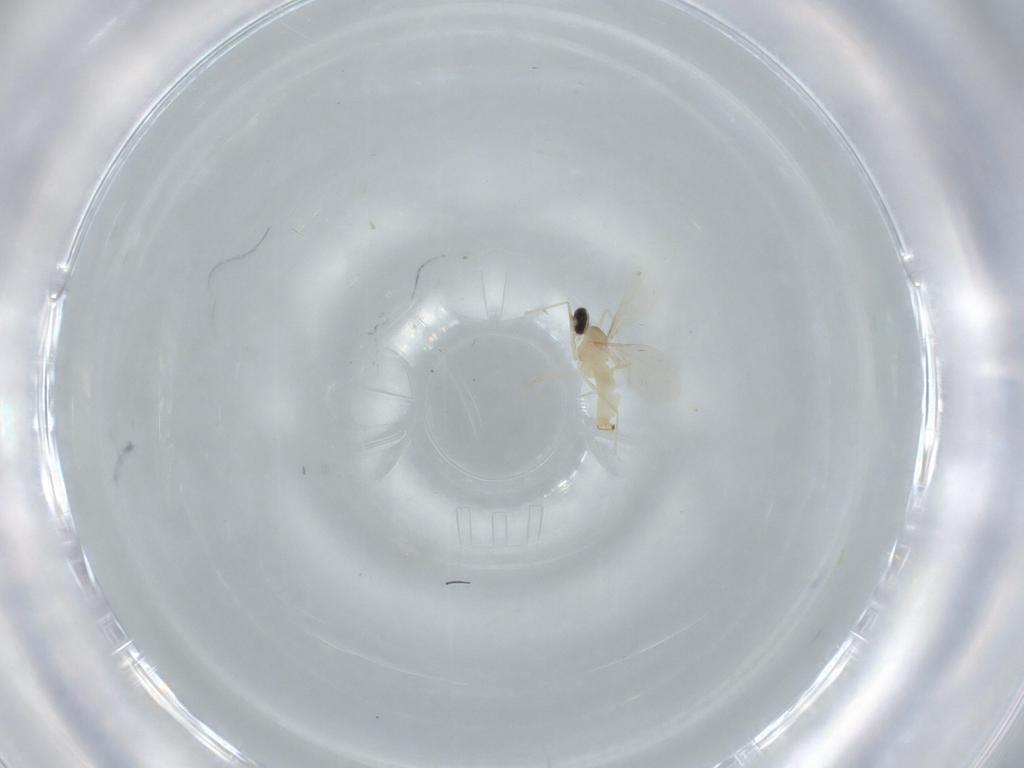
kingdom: Animalia
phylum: Arthropoda
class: Insecta
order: Diptera
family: Cecidomyiidae
